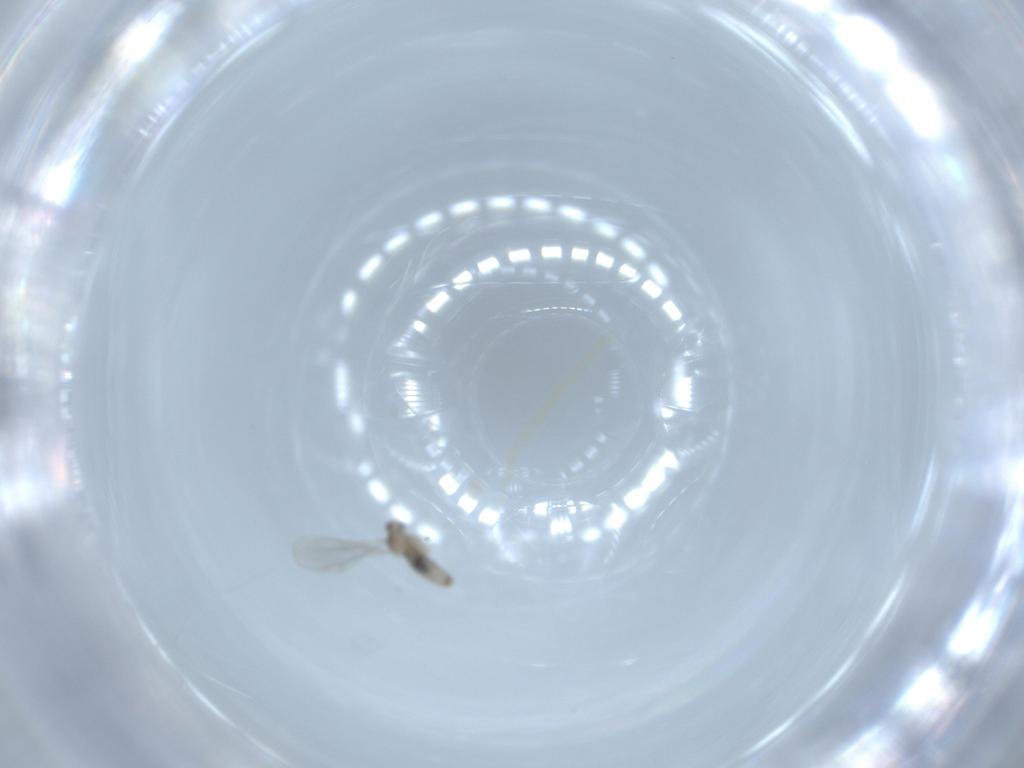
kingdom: Animalia
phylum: Arthropoda
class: Insecta
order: Diptera
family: Cecidomyiidae
